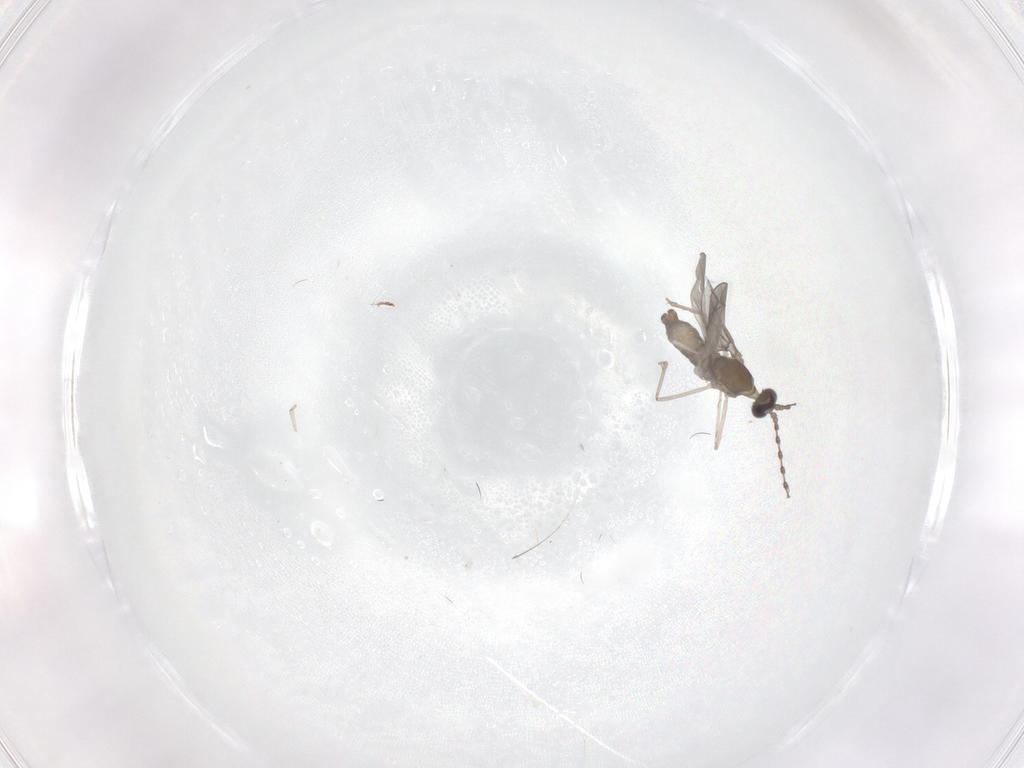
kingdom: Animalia
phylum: Arthropoda
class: Insecta
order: Diptera
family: Cecidomyiidae
